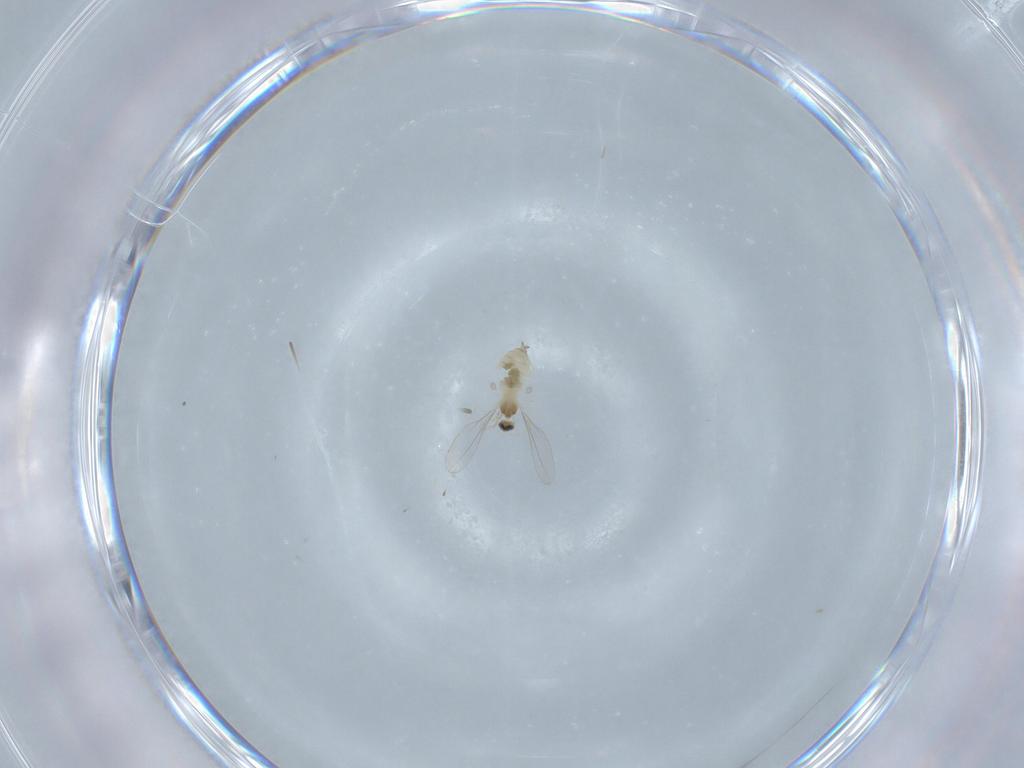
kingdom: Animalia
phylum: Arthropoda
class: Insecta
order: Diptera
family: Cecidomyiidae
